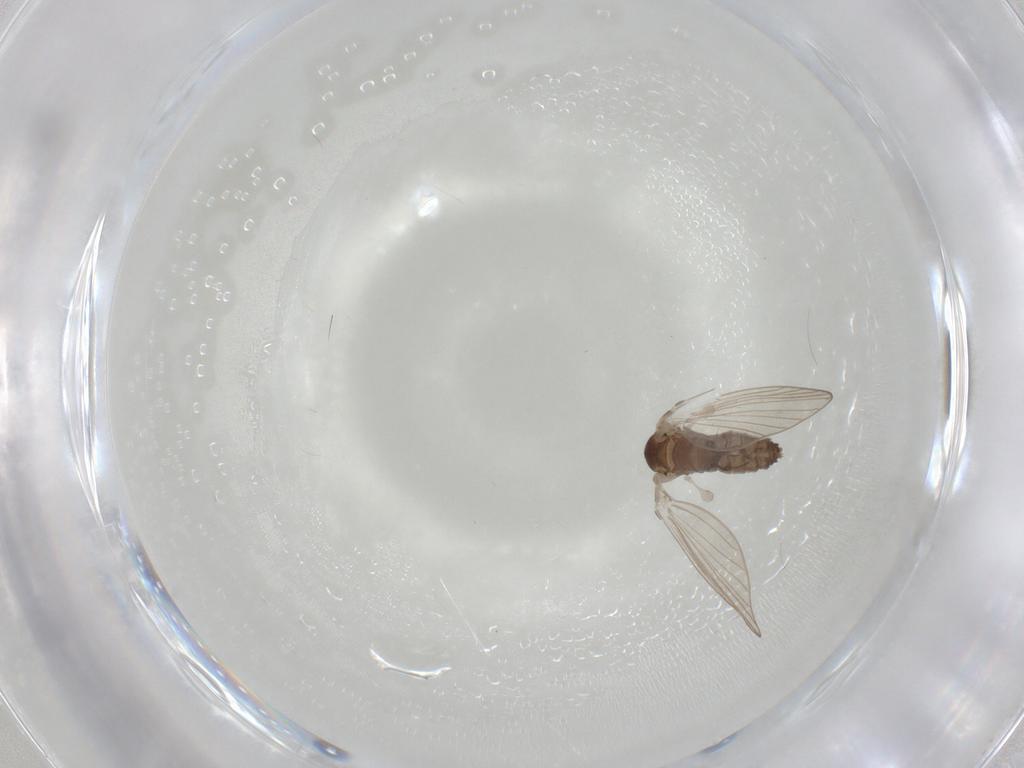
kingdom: Animalia
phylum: Arthropoda
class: Insecta
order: Diptera
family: Psychodidae
